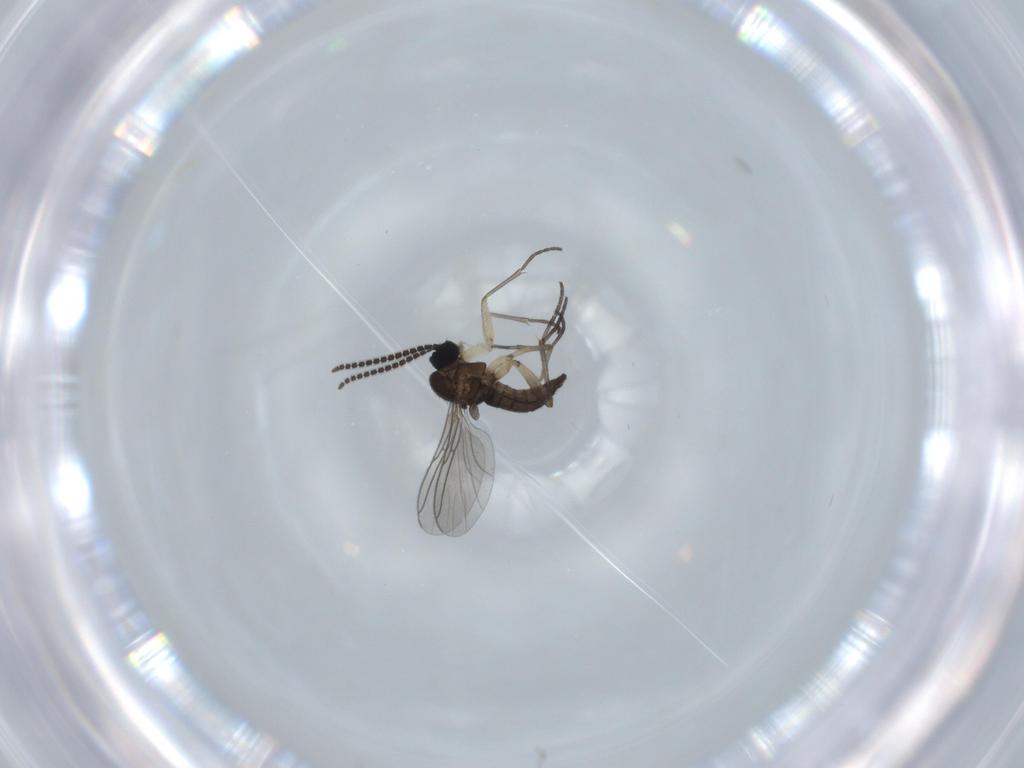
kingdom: Animalia
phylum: Arthropoda
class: Insecta
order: Diptera
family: Sciaridae
